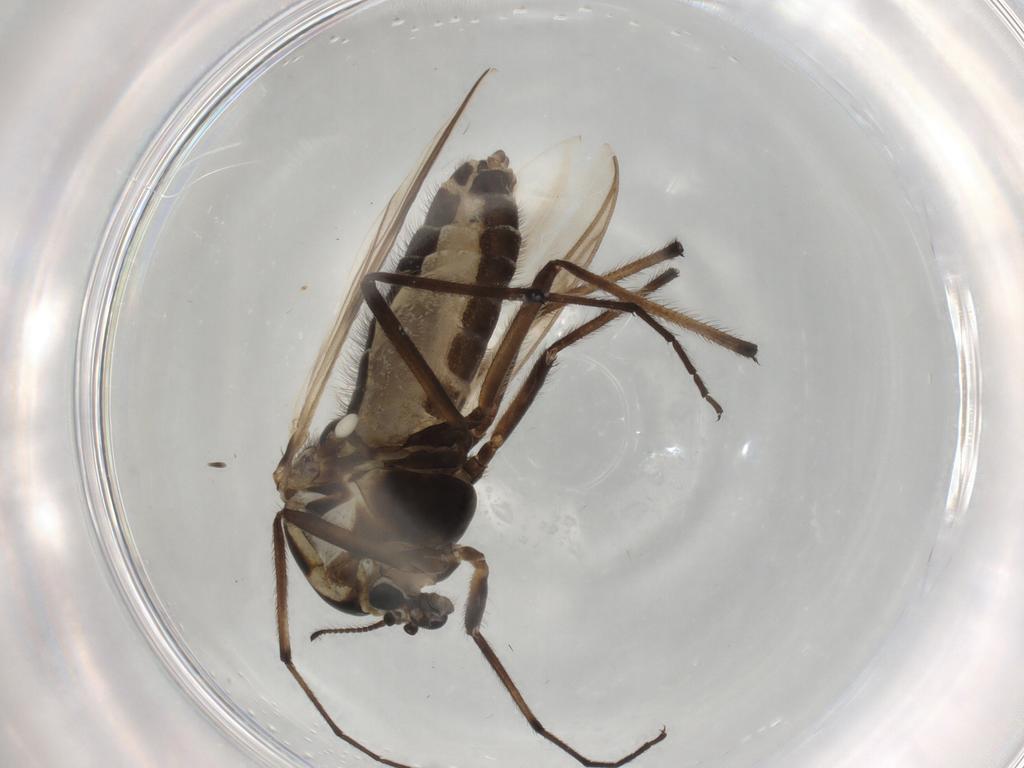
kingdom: Animalia
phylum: Arthropoda
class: Insecta
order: Diptera
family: Chironomidae
